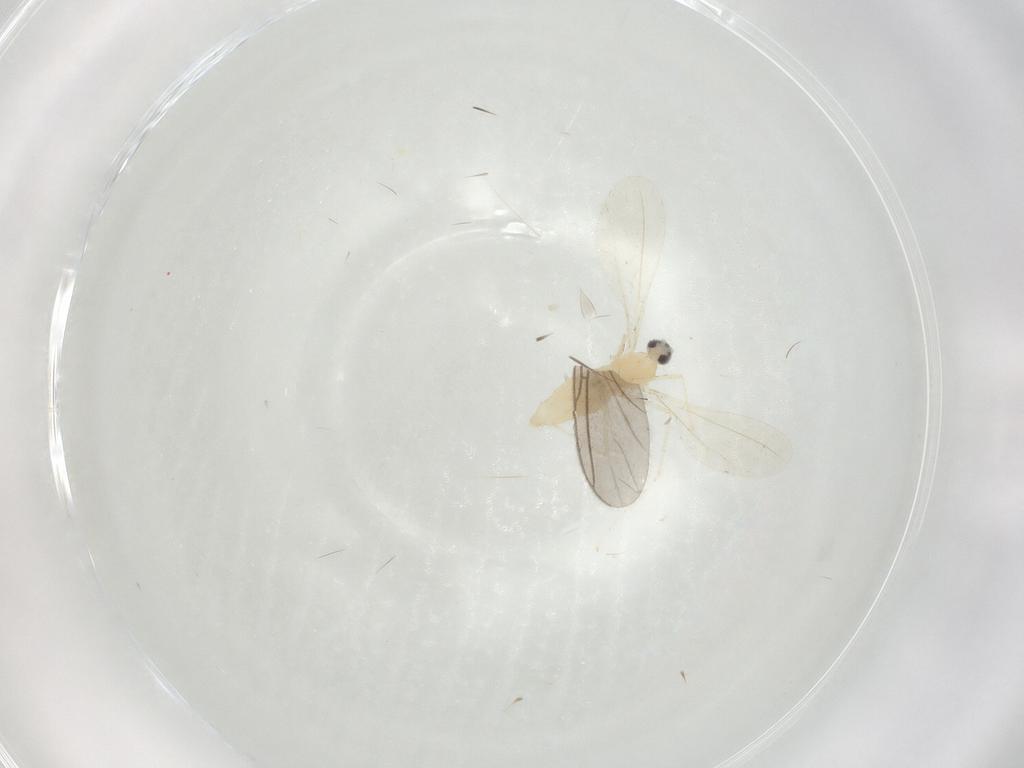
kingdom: Animalia
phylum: Arthropoda
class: Insecta
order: Diptera
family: Cecidomyiidae
